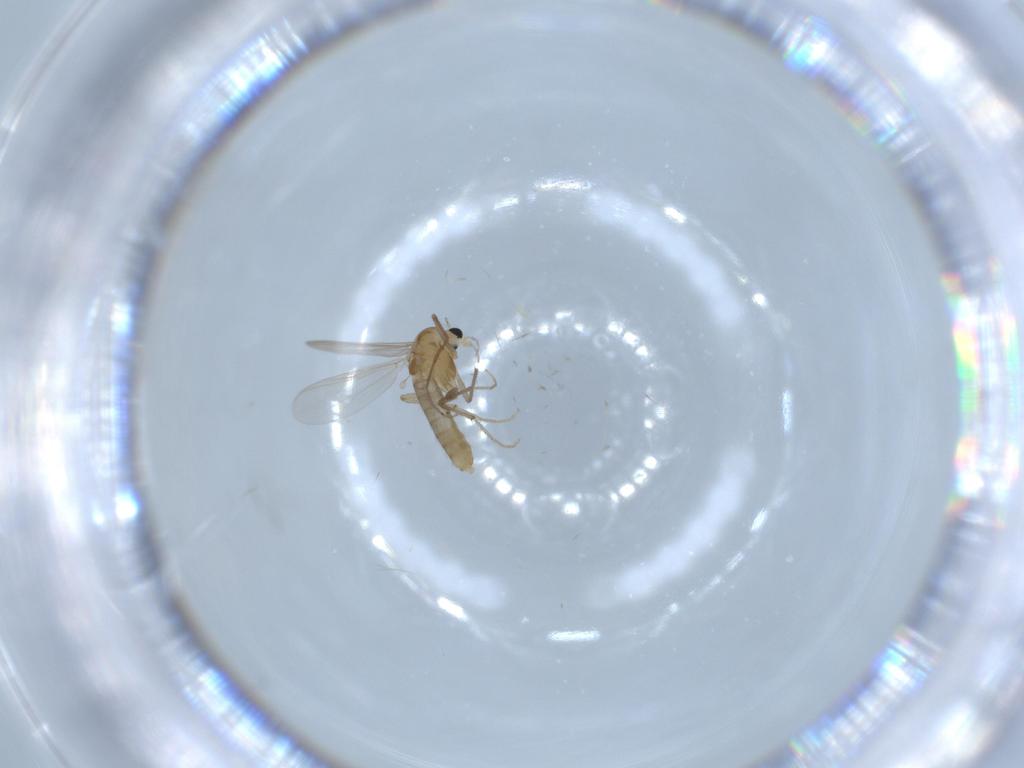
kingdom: Animalia
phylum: Arthropoda
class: Insecta
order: Diptera
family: Chironomidae
